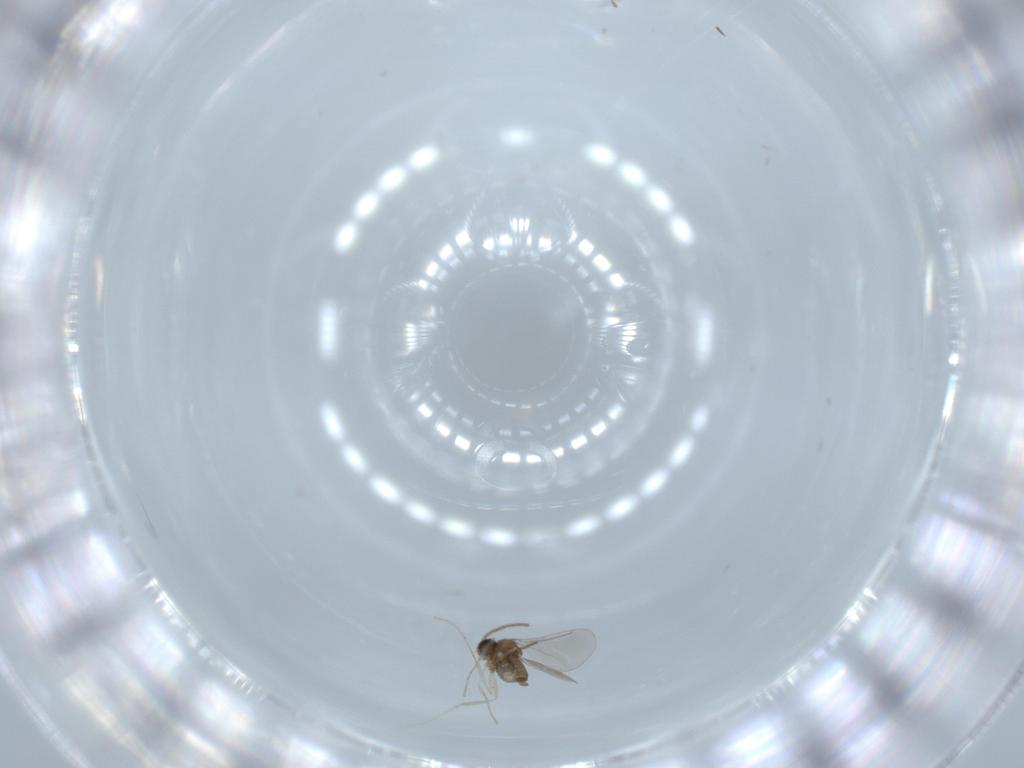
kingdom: Animalia
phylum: Arthropoda
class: Insecta
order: Diptera
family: Cecidomyiidae
